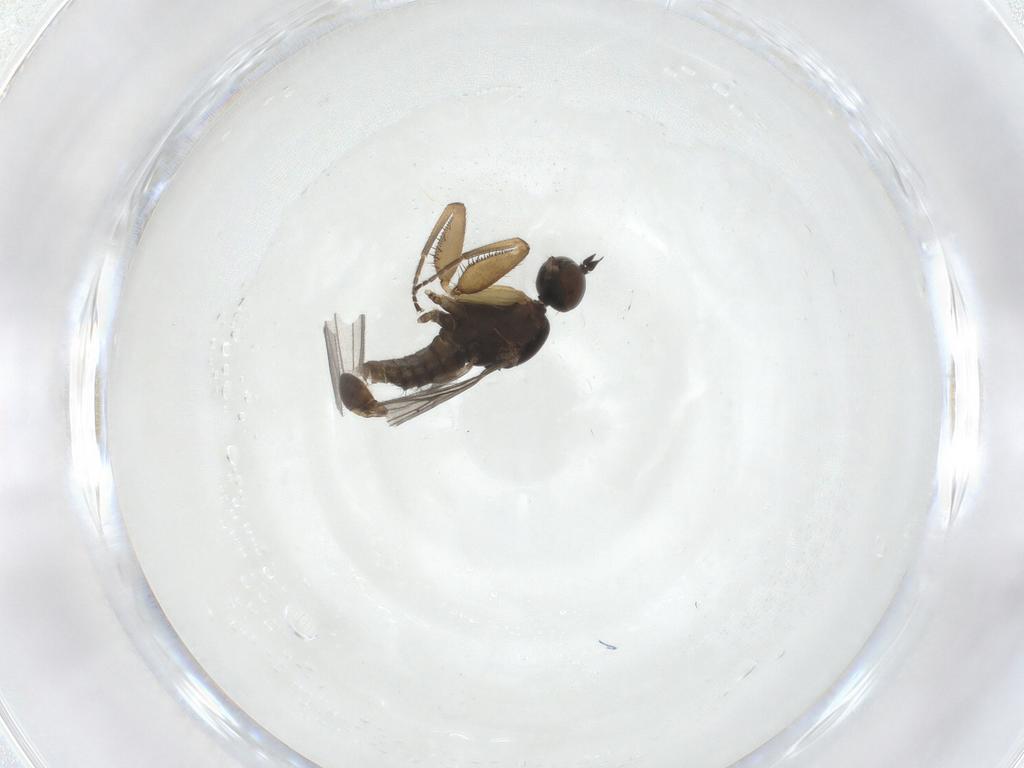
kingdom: Animalia
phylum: Arthropoda
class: Insecta
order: Diptera
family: Empididae
